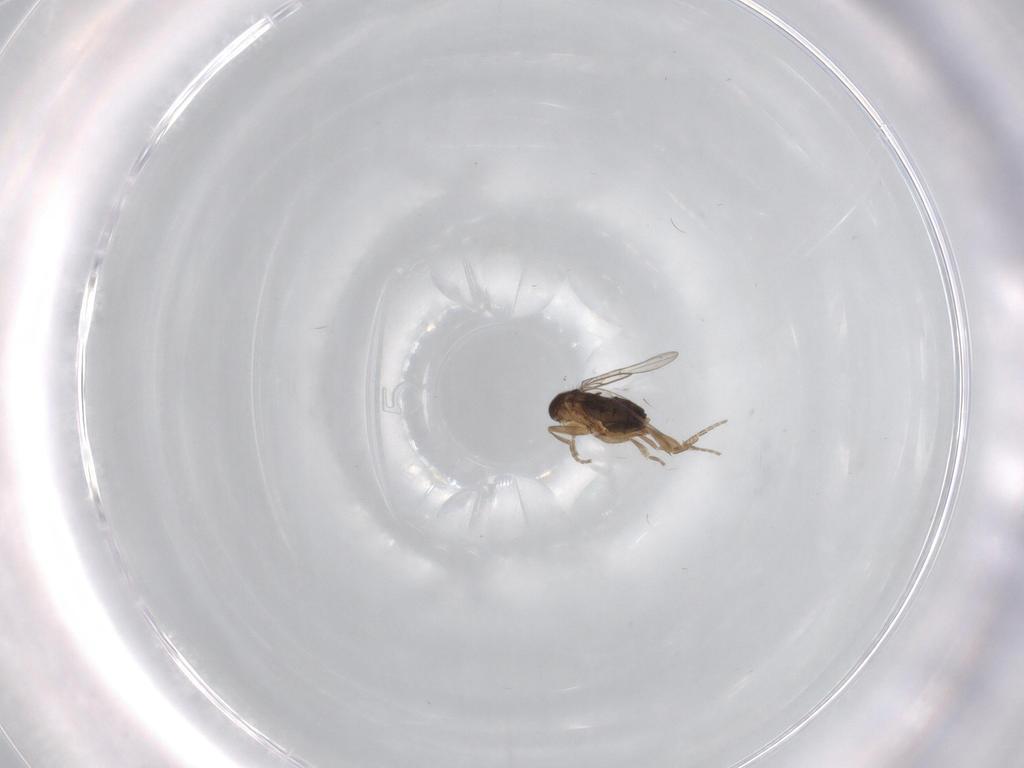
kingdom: Animalia
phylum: Arthropoda
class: Insecta
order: Diptera
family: Phoridae
